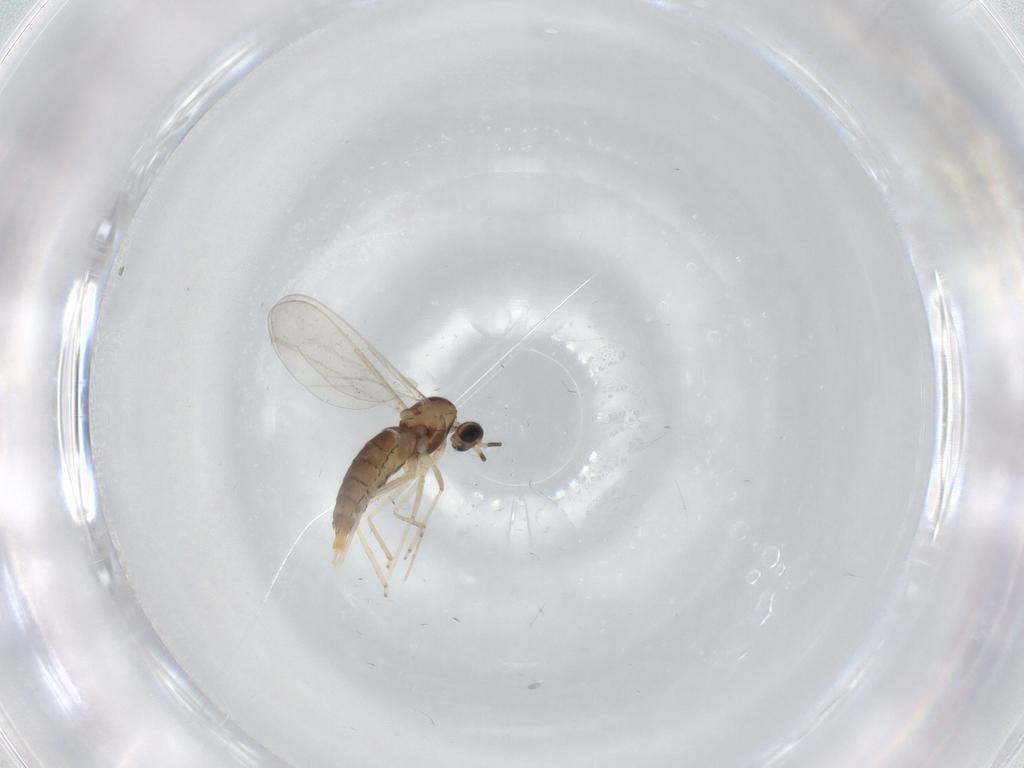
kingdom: Animalia
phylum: Arthropoda
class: Insecta
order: Diptera
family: Cecidomyiidae
